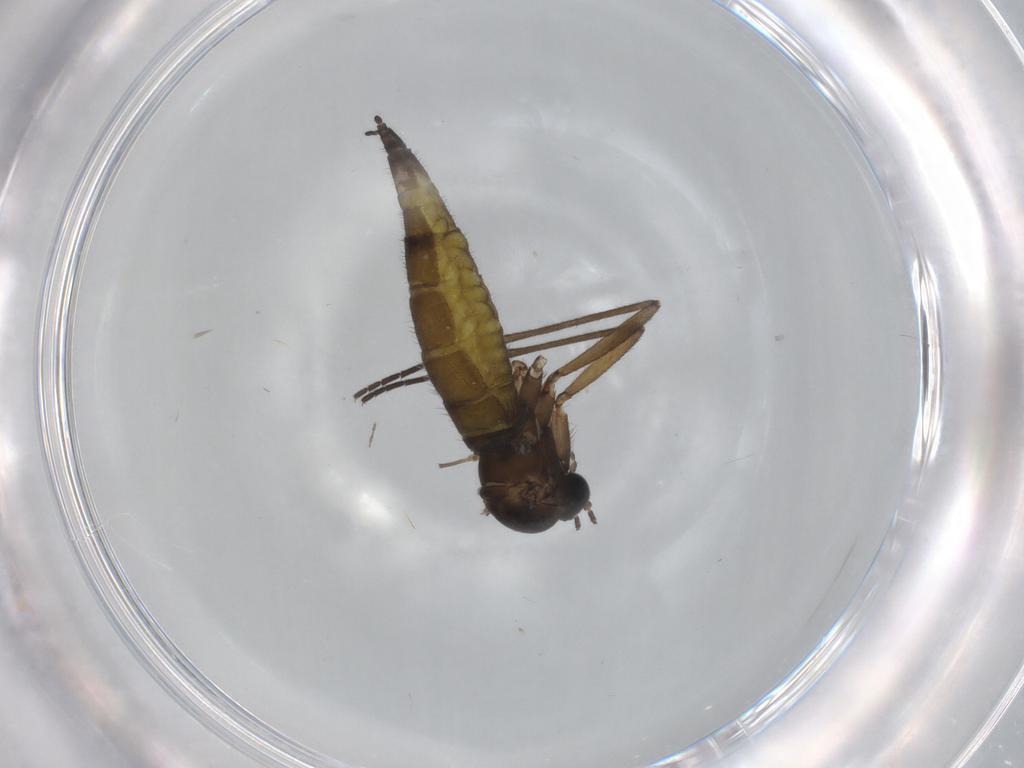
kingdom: Animalia
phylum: Arthropoda
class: Insecta
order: Diptera
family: Sciaridae
